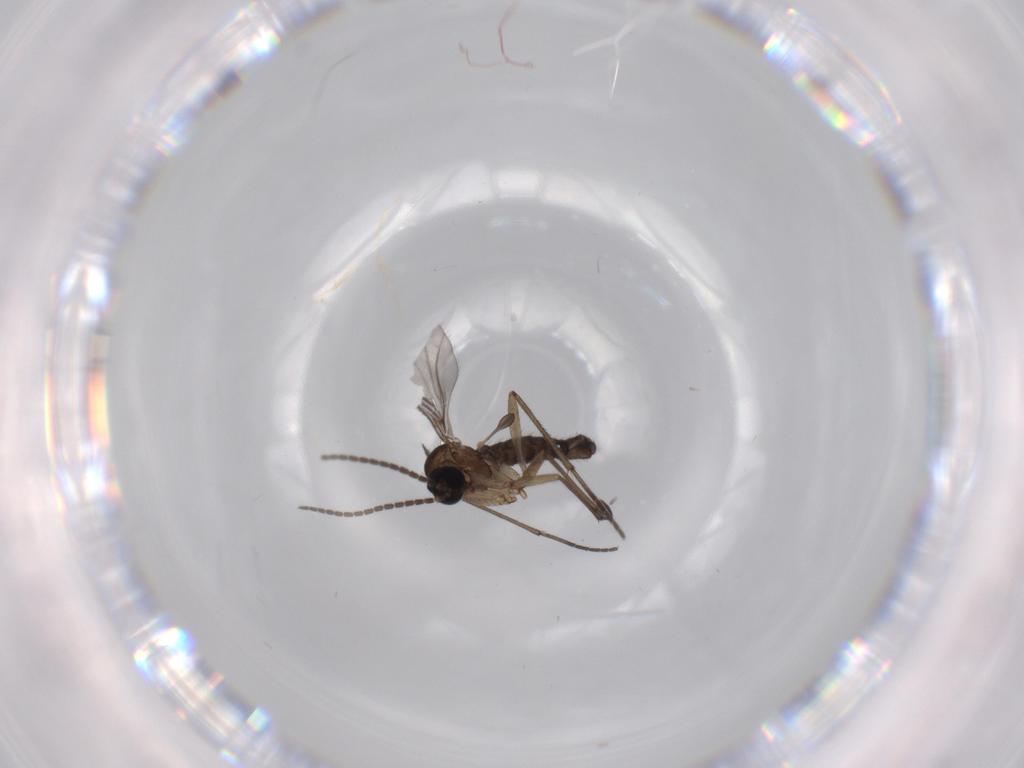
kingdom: Animalia
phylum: Arthropoda
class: Insecta
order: Diptera
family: Sciaridae
